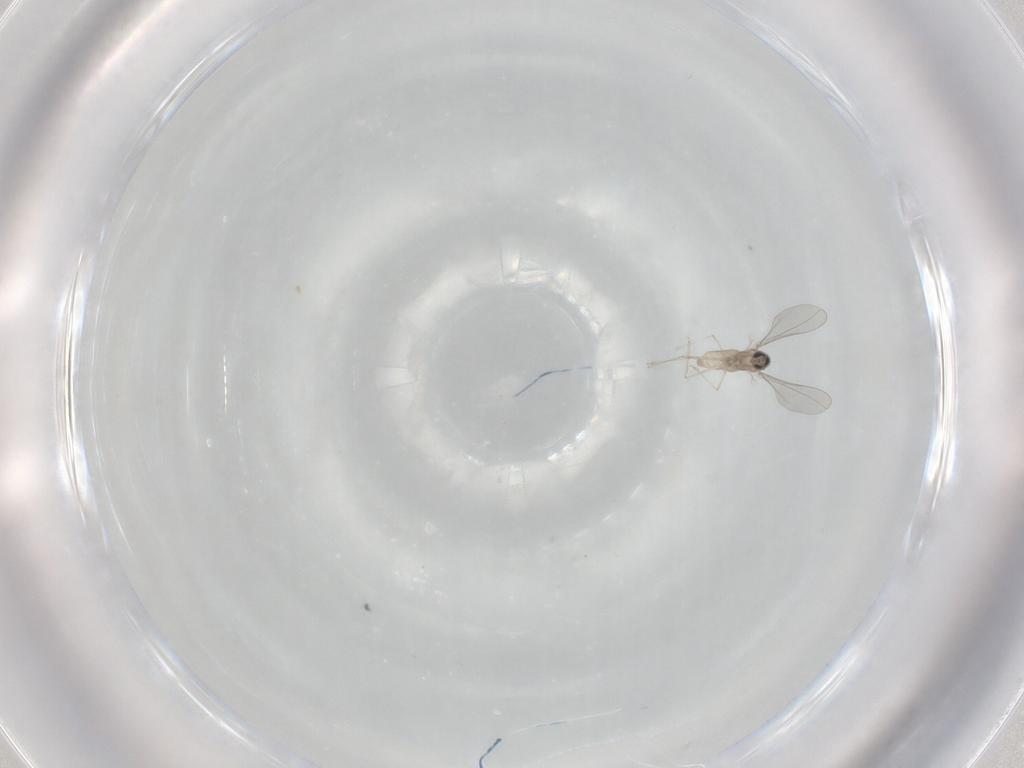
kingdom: Animalia
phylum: Arthropoda
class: Insecta
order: Diptera
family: Cecidomyiidae
